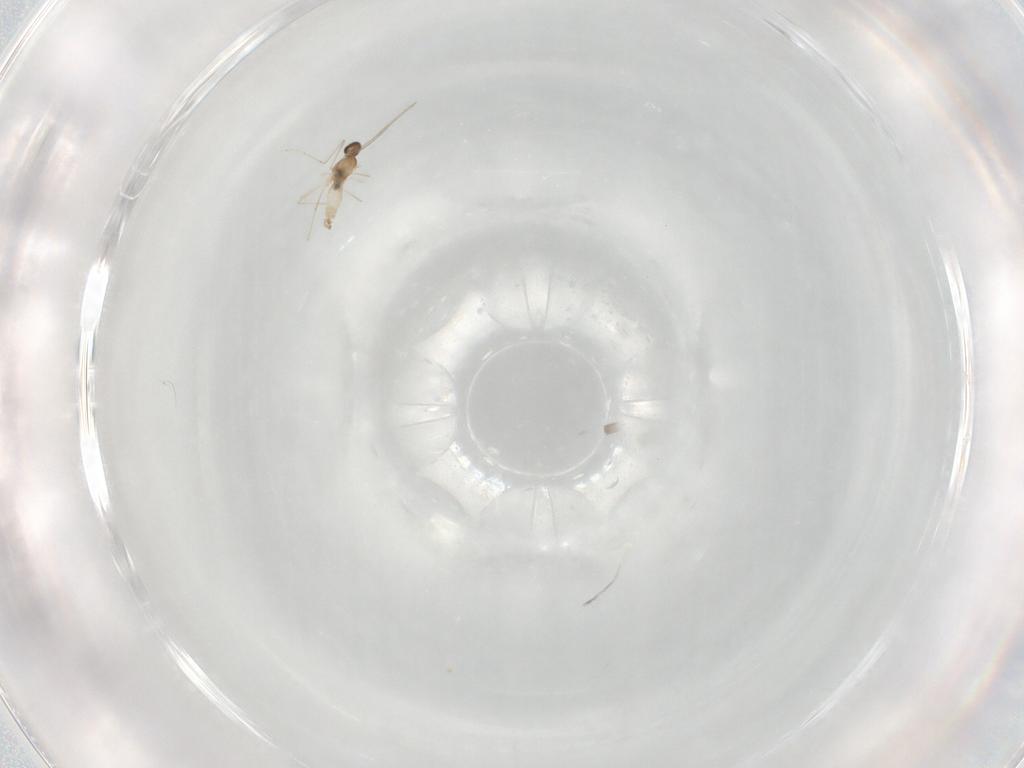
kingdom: Animalia
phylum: Arthropoda
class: Insecta
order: Diptera
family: Cecidomyiidae
